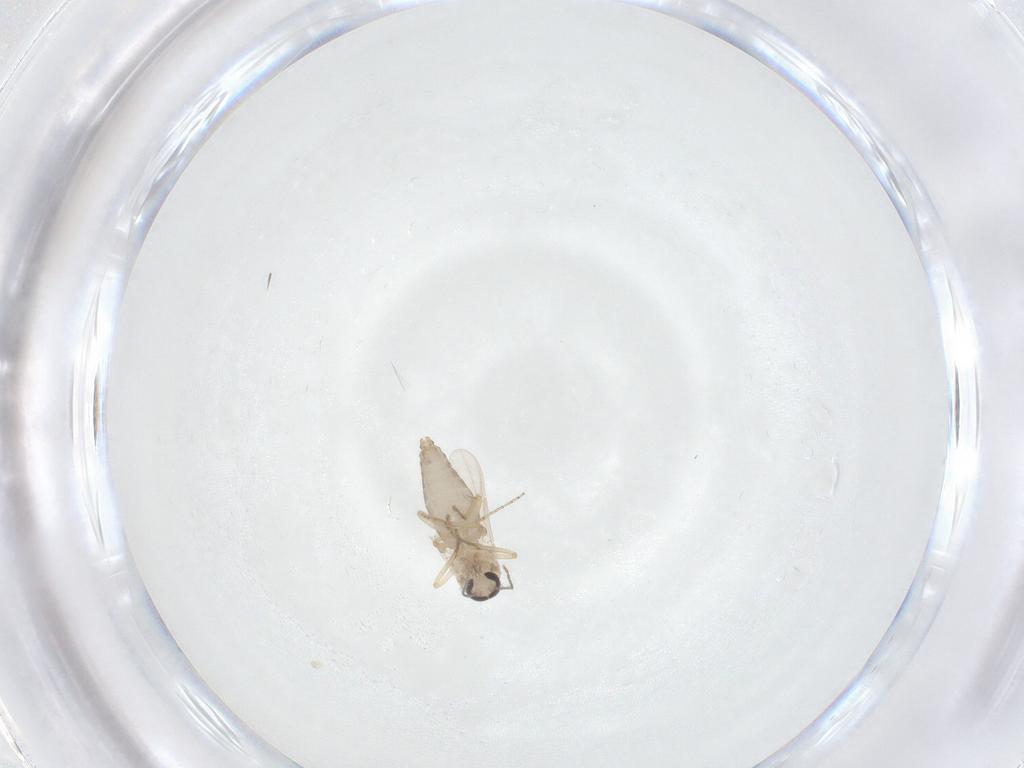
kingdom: Animalia
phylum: Arthropoda
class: Insecta
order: Diptera
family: Ceratopogonidae
